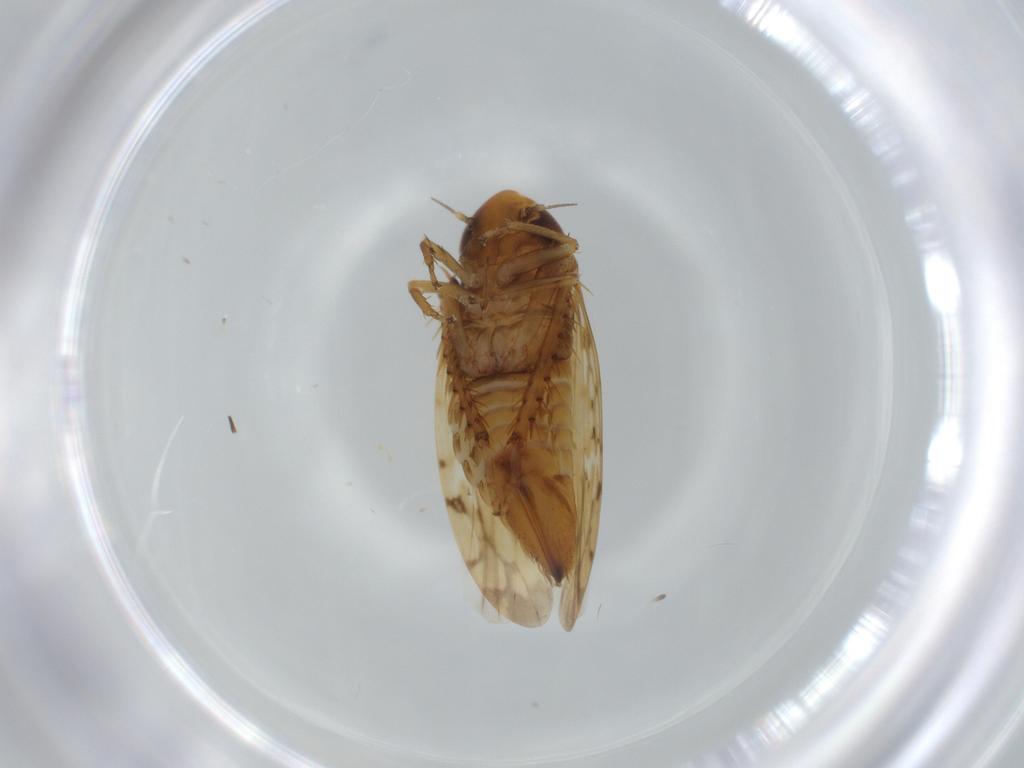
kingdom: Animalia
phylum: Arthropoda
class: Insecta
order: Hemiptera
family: Cicadellidae
